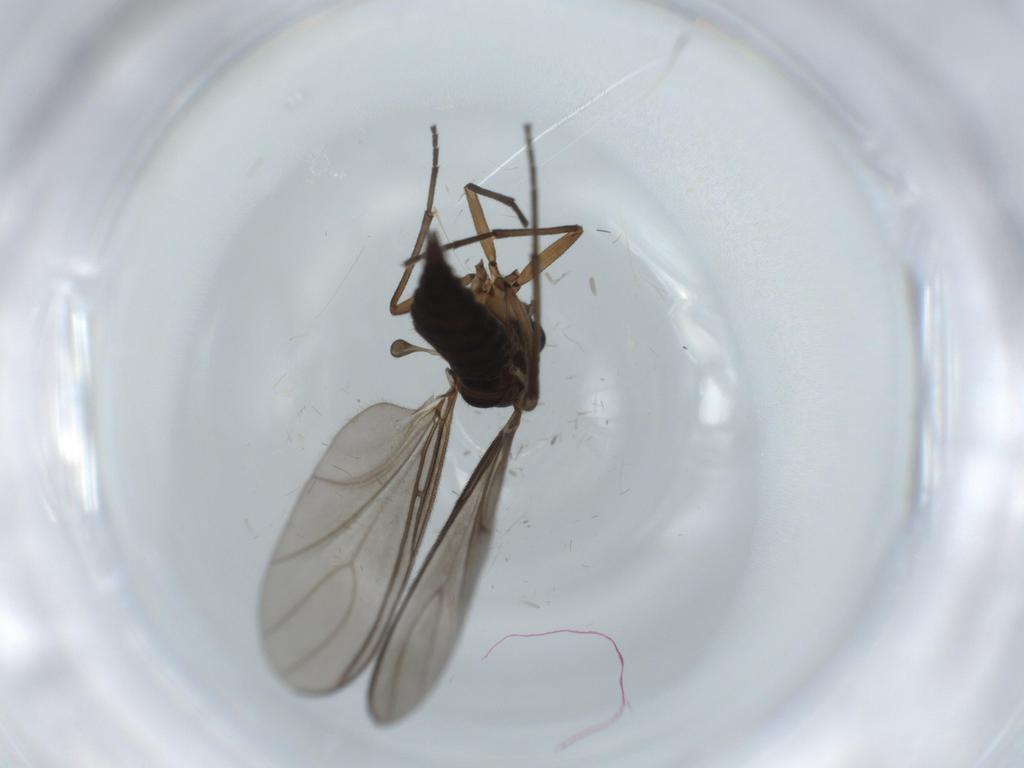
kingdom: Animalia
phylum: Arthropoda
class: Insecta
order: Diptera
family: Sciaridae
